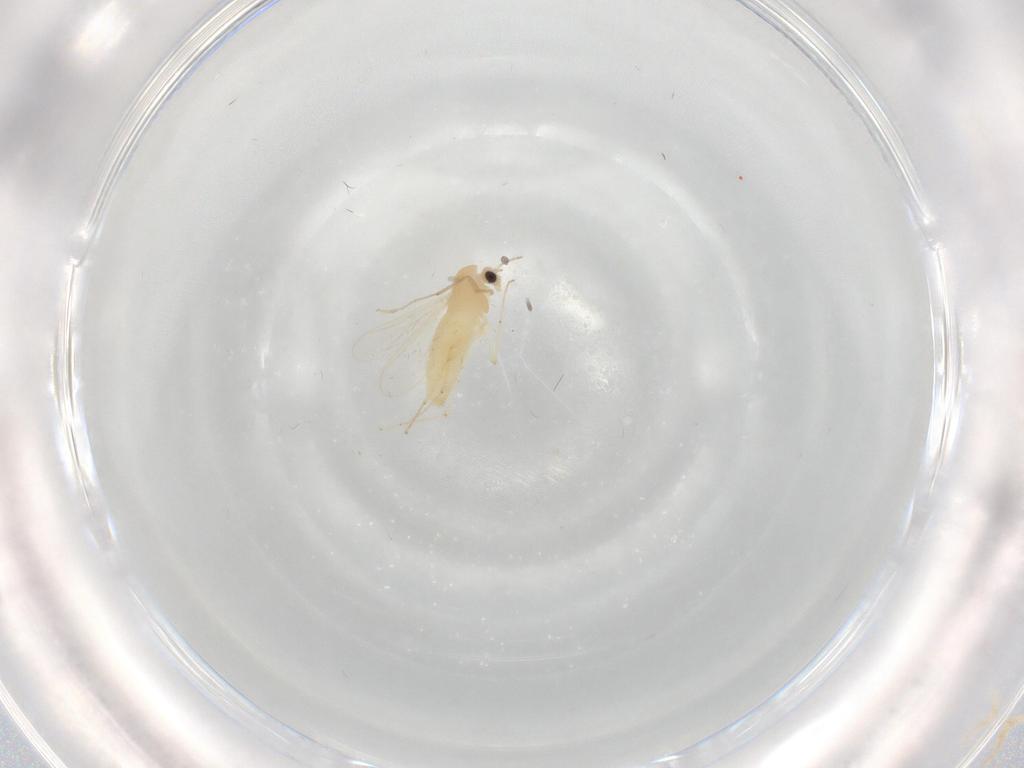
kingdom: Animalia
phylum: Arthropoda
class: Insecta
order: Diptera
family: Chironomidae
